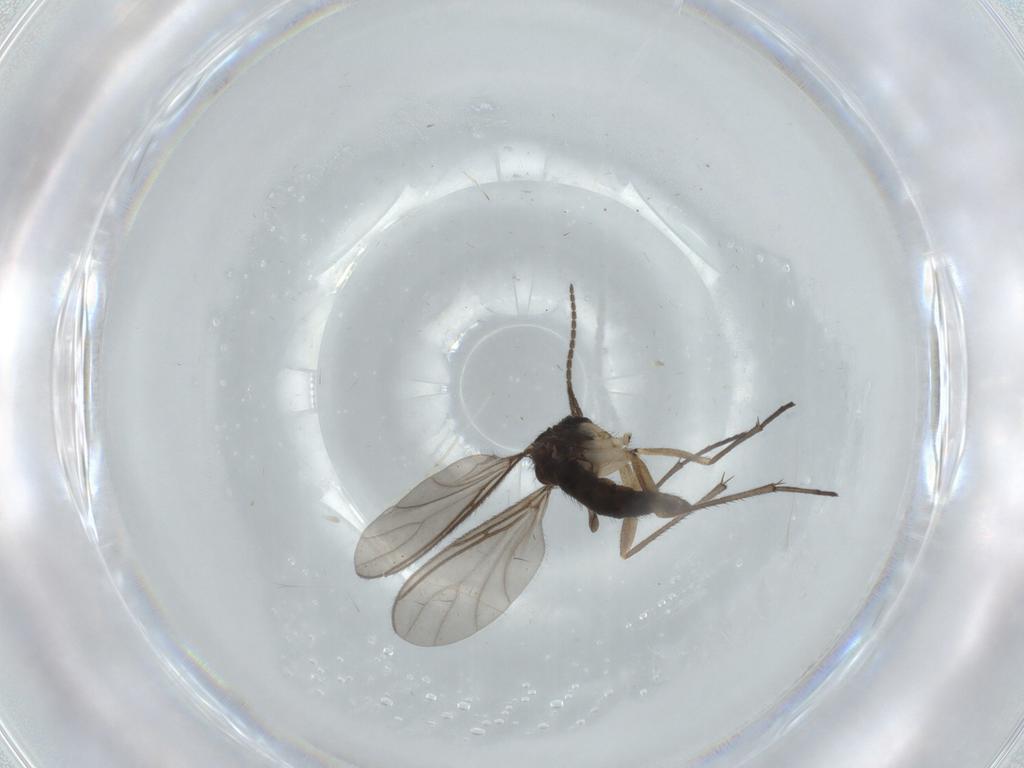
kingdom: Animalia
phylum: Arthropoda
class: Insecta
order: Diptera
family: Sciaridae
